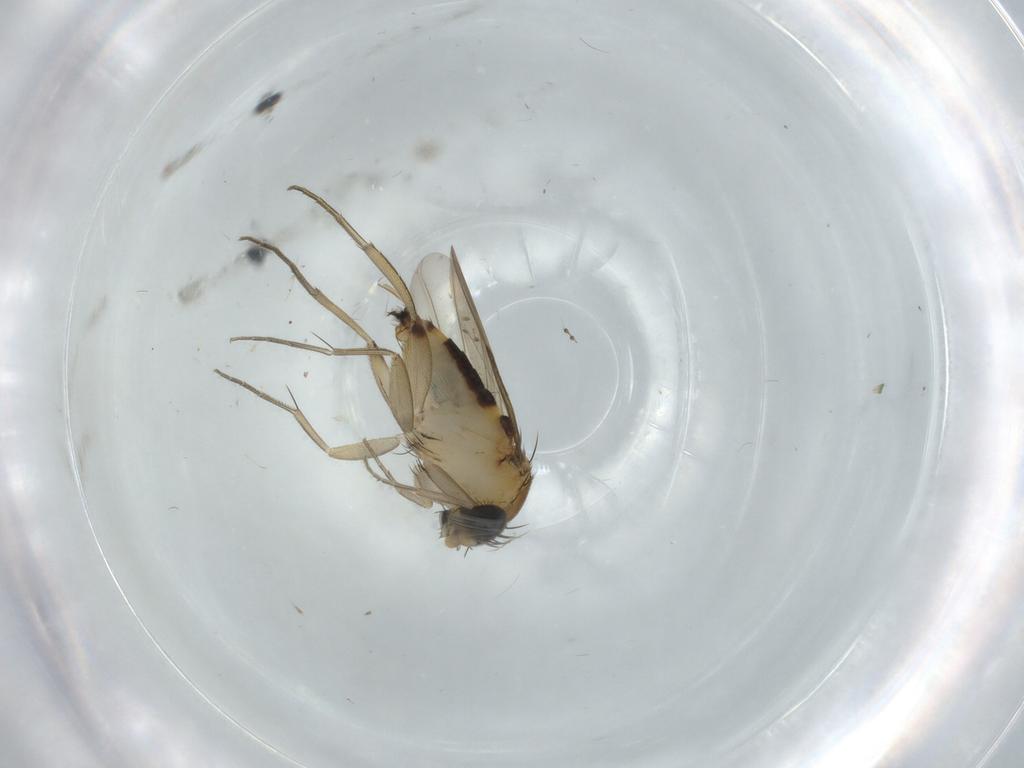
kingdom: Animalia
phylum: Arthropoda
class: Insecta
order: Diptera
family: Phoridae
